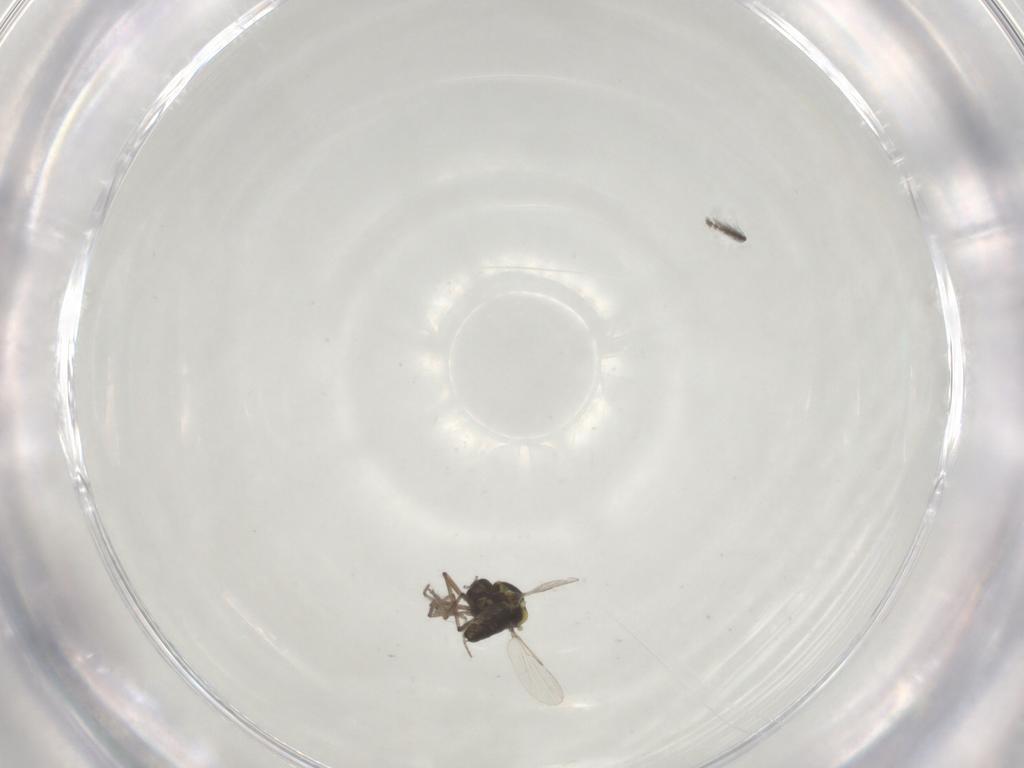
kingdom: Animalia
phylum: Arthropoda
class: Insecta
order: Diptera
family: Ceratopogonidae
